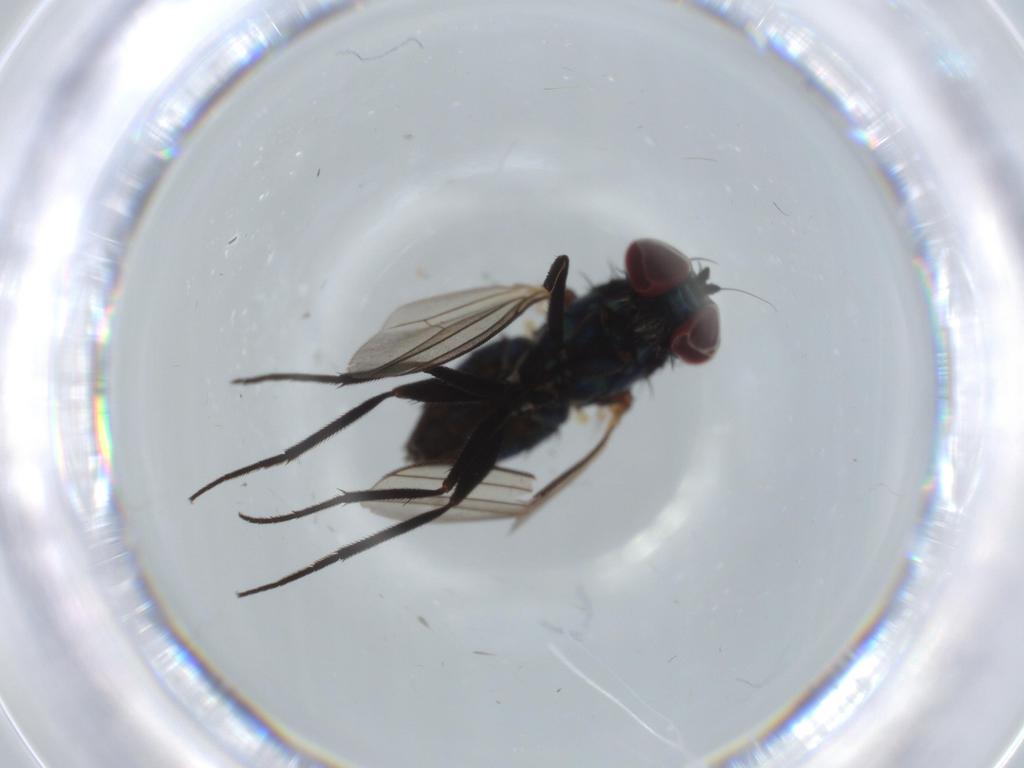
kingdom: Animalia
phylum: Arthropoda
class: Insecta
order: Diptera
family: Dolichopodidae
